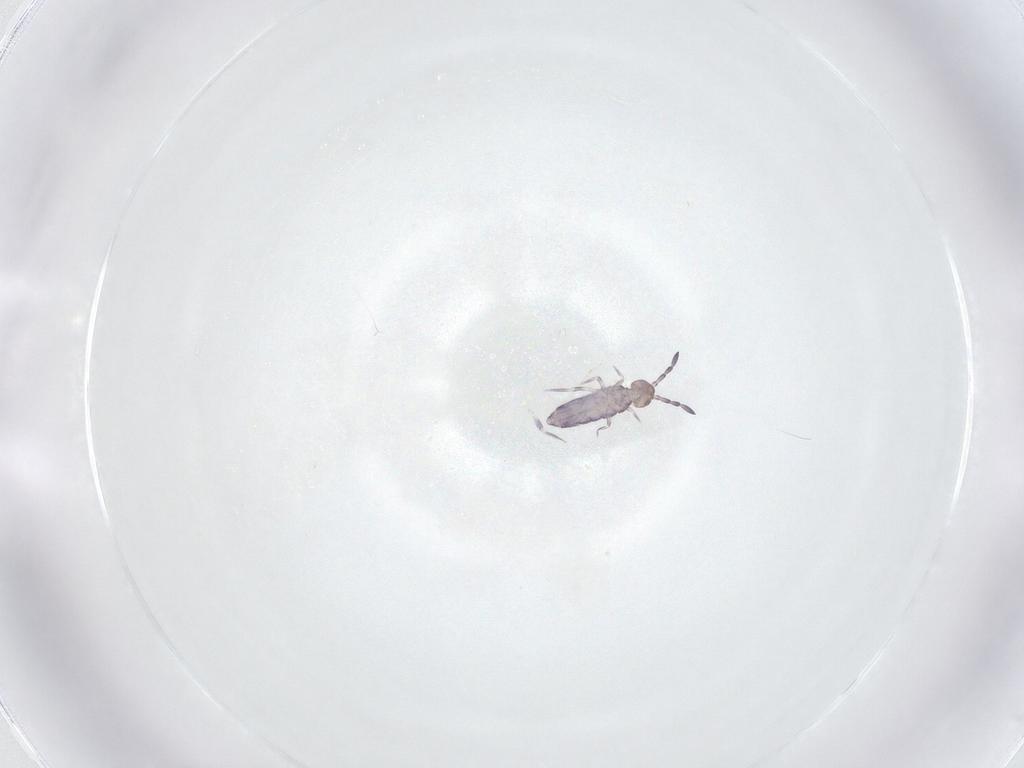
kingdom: Animalia
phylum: Arthropoda
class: Collembola
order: Entomobryomorpha
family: Entomobryidae
